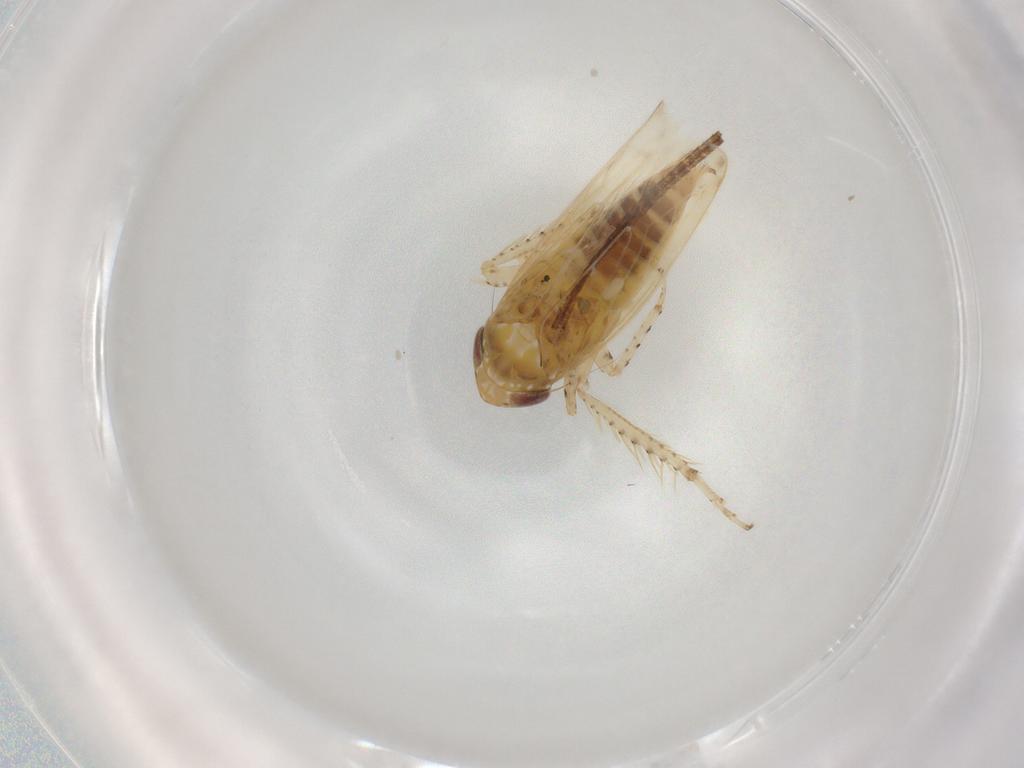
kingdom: Animalia
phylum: Arthropoda
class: Insecta
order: Hemiptera
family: Cicadellidae
